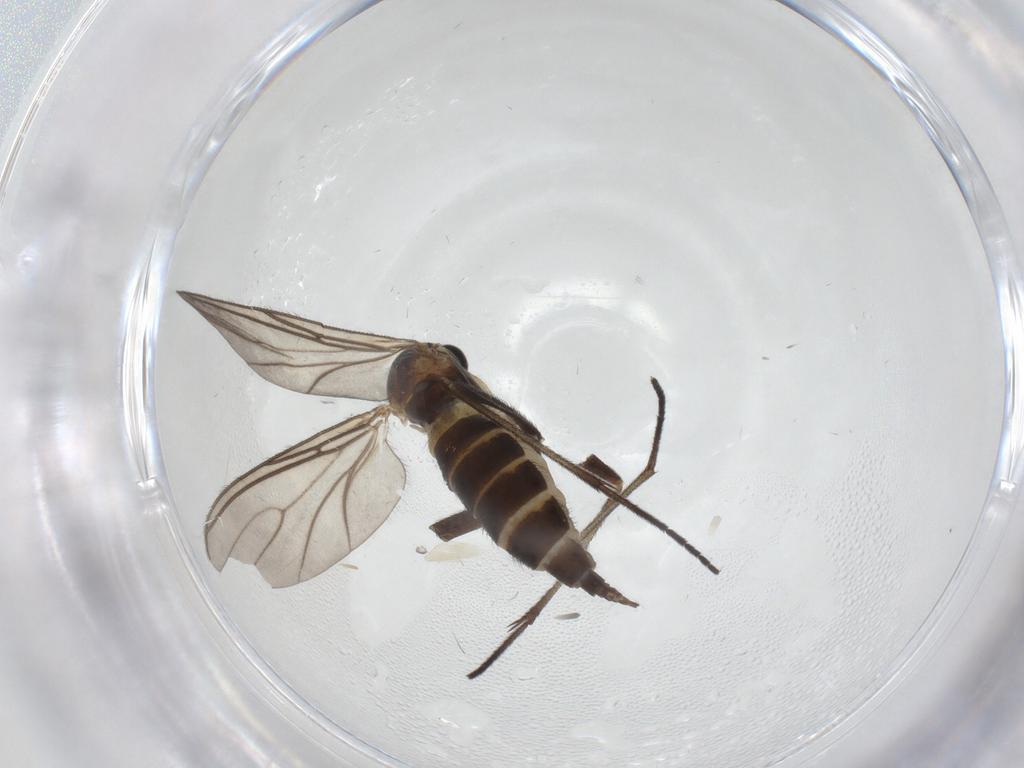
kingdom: Animalia
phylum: Arthropoda
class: Insecta
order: Diptera
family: Sciaridae
